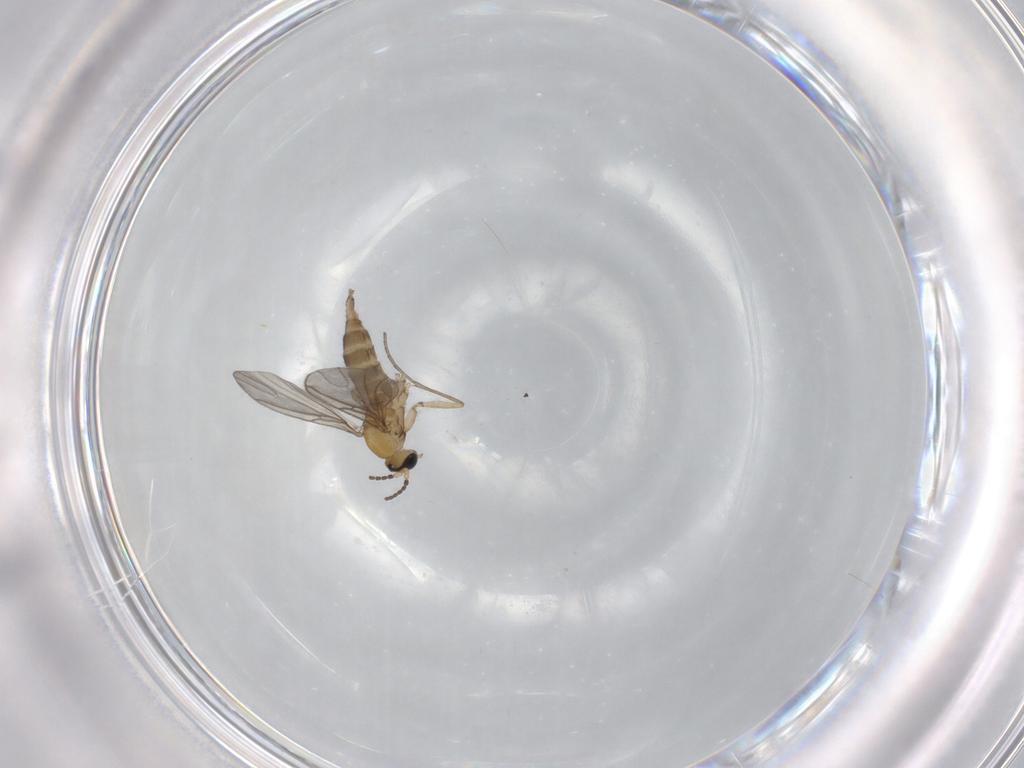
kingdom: Animalia
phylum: Arthropoda
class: Insecta
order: Diptera
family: Sciaridae
